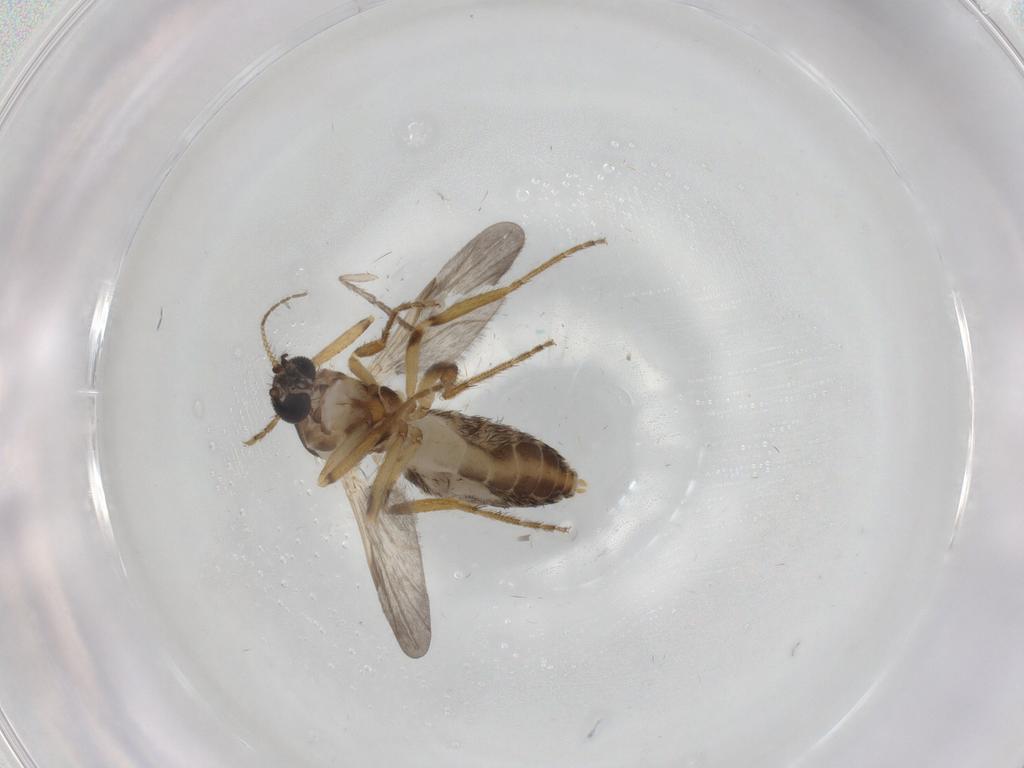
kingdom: Animalia
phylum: Arthropoda
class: Insecta
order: Diptera
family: Ceratopogonidae
